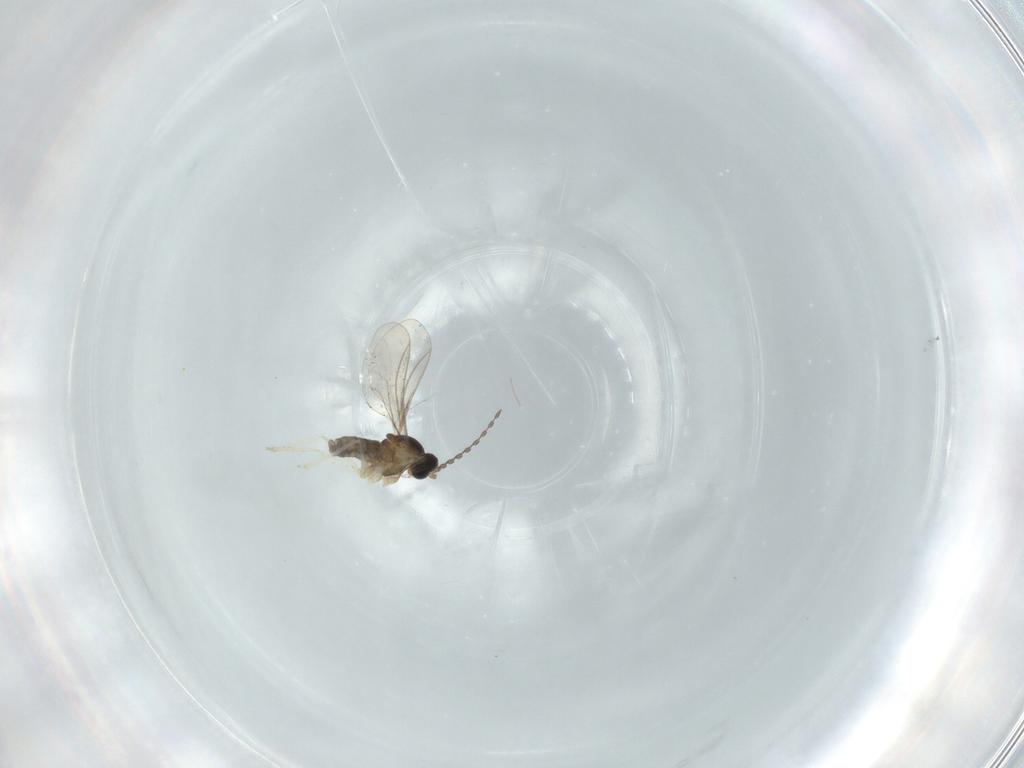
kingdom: Animalia
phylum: Arthropoda
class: Insecta
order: Diptera
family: Cecidomyiidae
